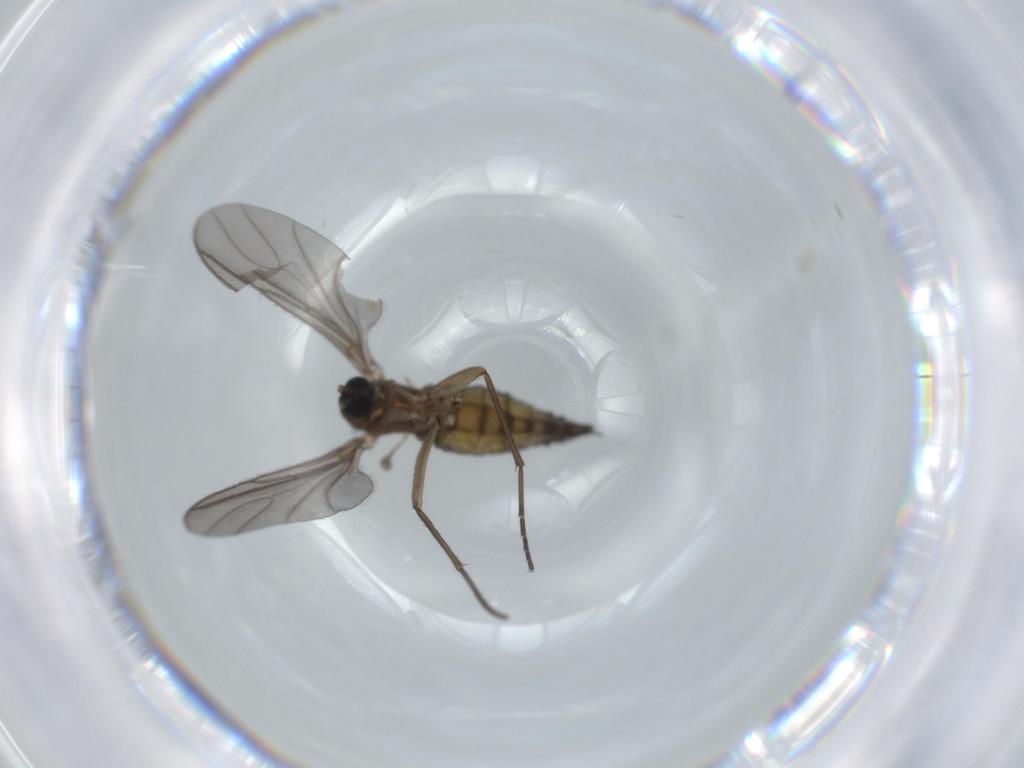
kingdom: Animalia
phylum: Arthropoda
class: Insecta
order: Diptera
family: Sciaridae
